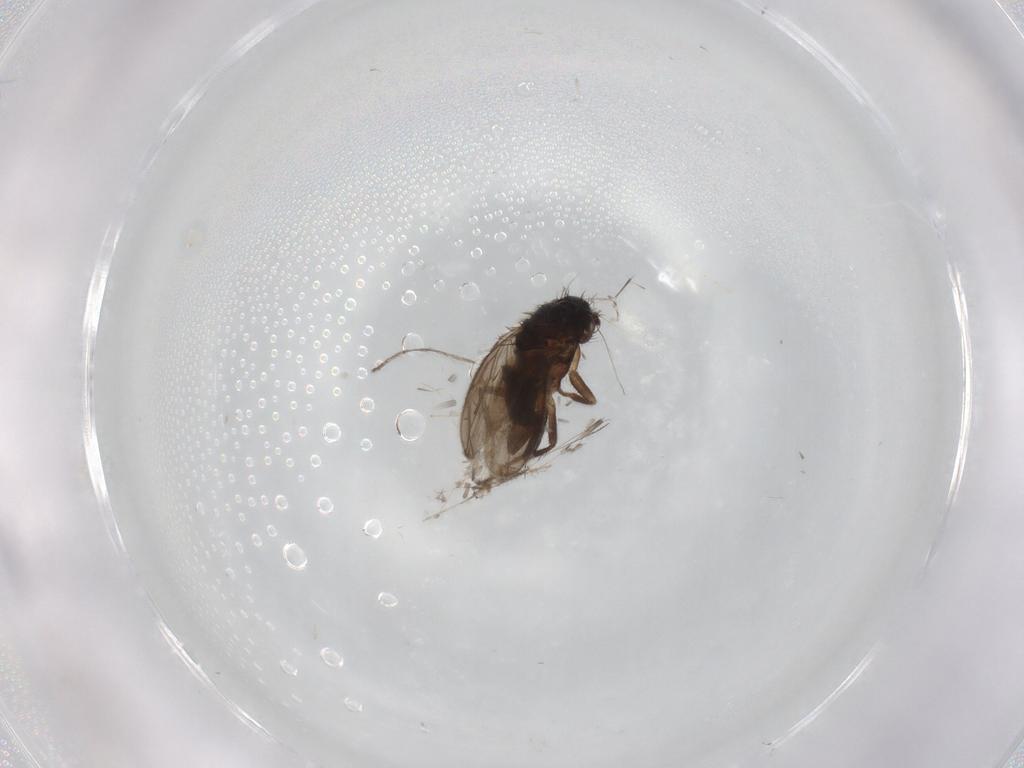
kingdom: Animalia
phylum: Arthropoda
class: Insecta
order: Diptera
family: Sphaeroceridae
